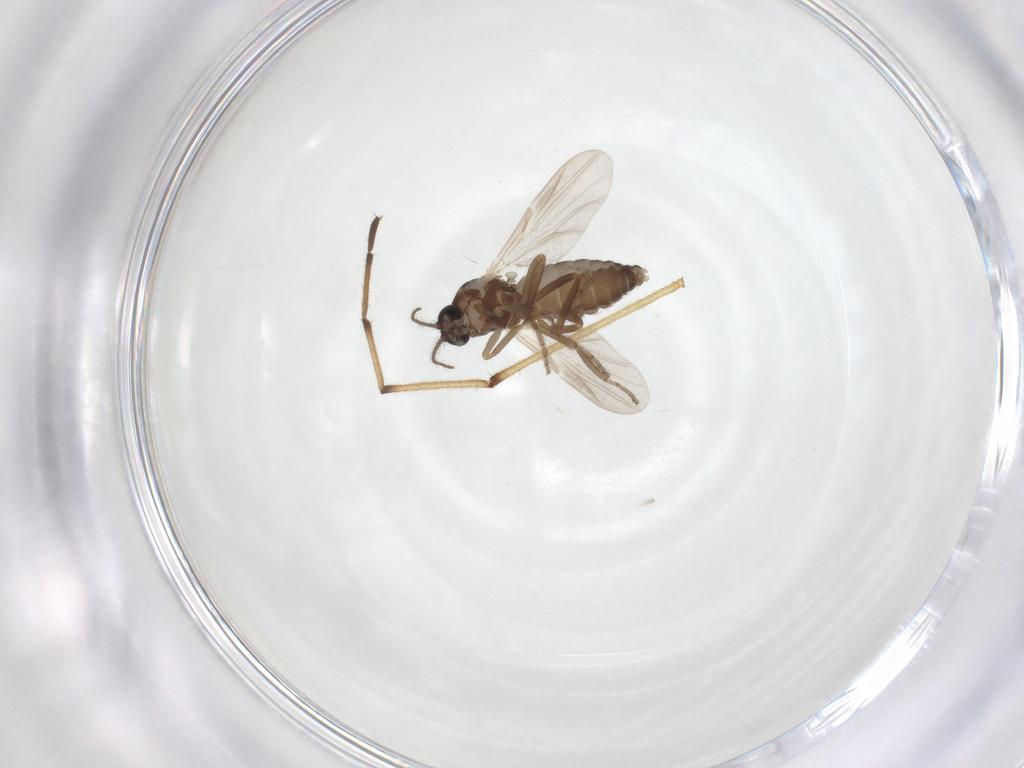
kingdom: Animalia
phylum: Arthropoda
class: Insecta
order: Diptera
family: Ceratopogonidae
